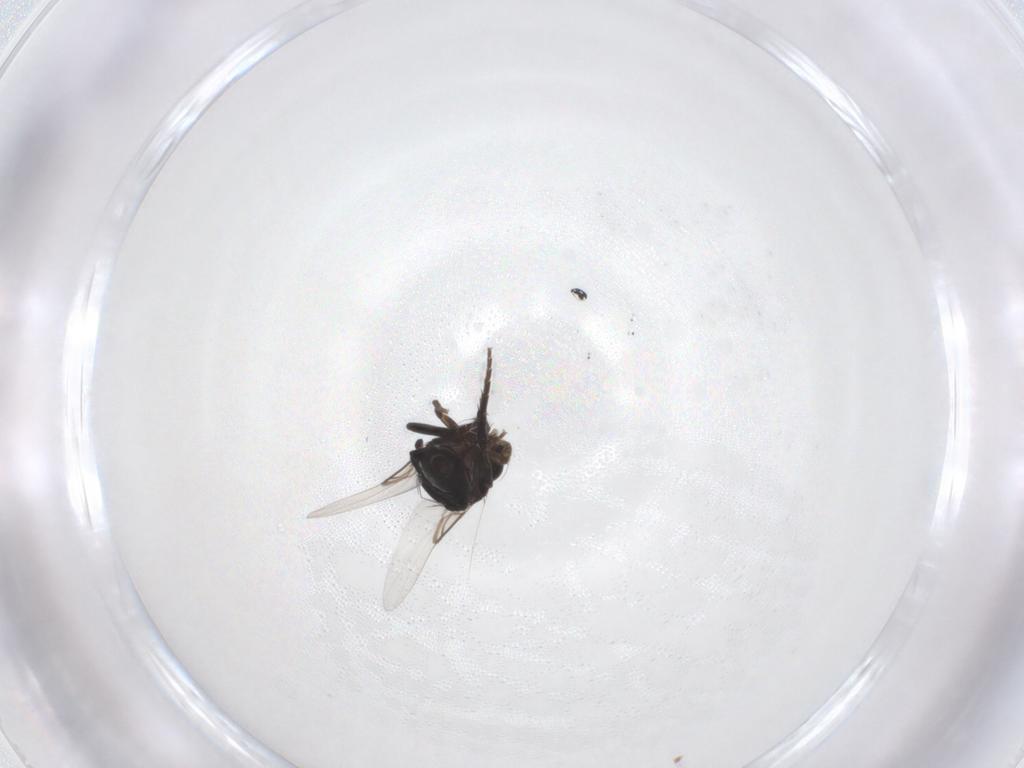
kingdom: Animalia
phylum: Arthropoda
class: Insecta
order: Diptera
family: Phoridae
